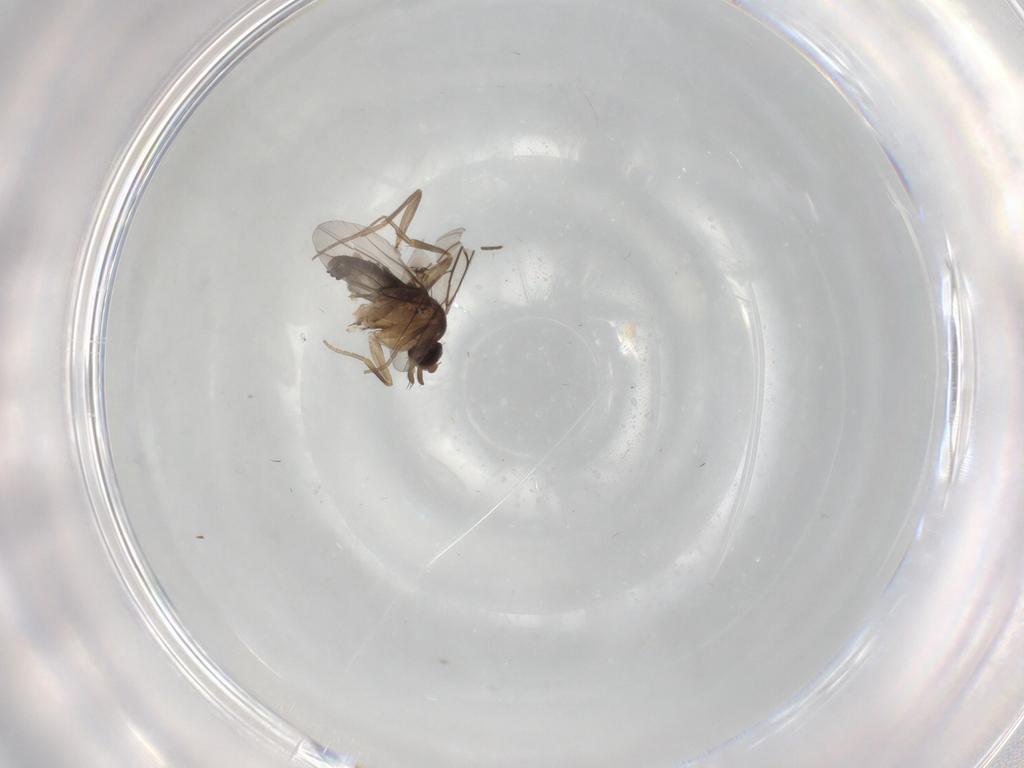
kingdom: Animalia
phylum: Arthropoda
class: Insecta
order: Diptera
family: Phoridae
